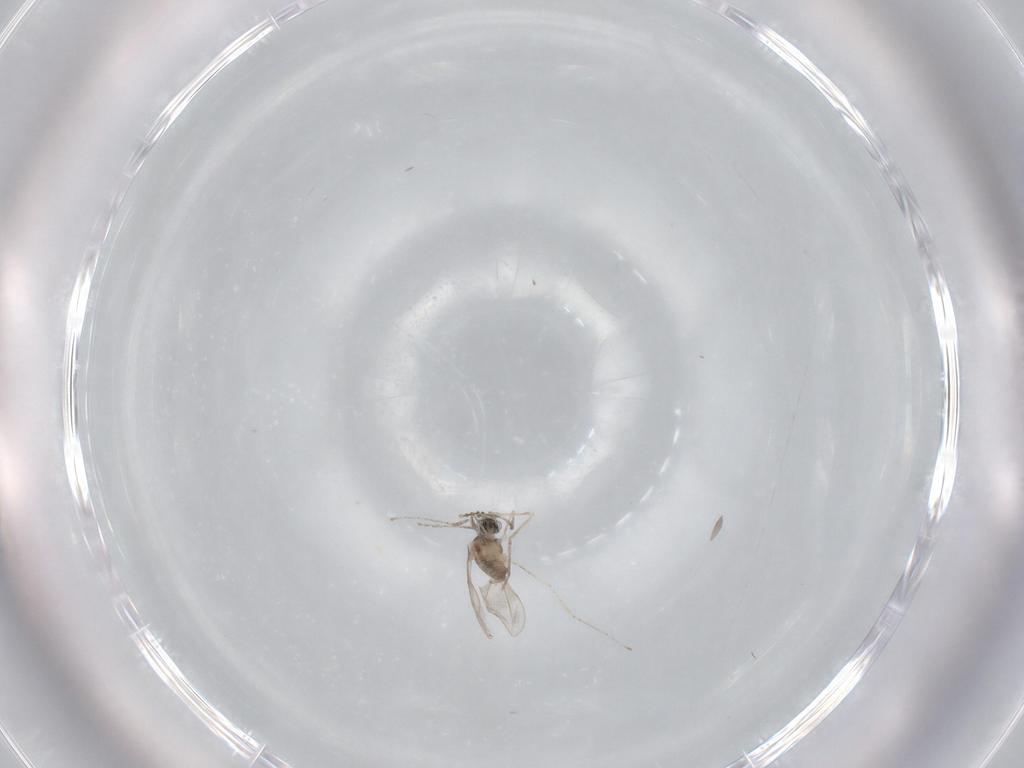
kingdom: Animalia
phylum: Arthropoda
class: Insecta
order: Diptera
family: Cecidomyiidae
